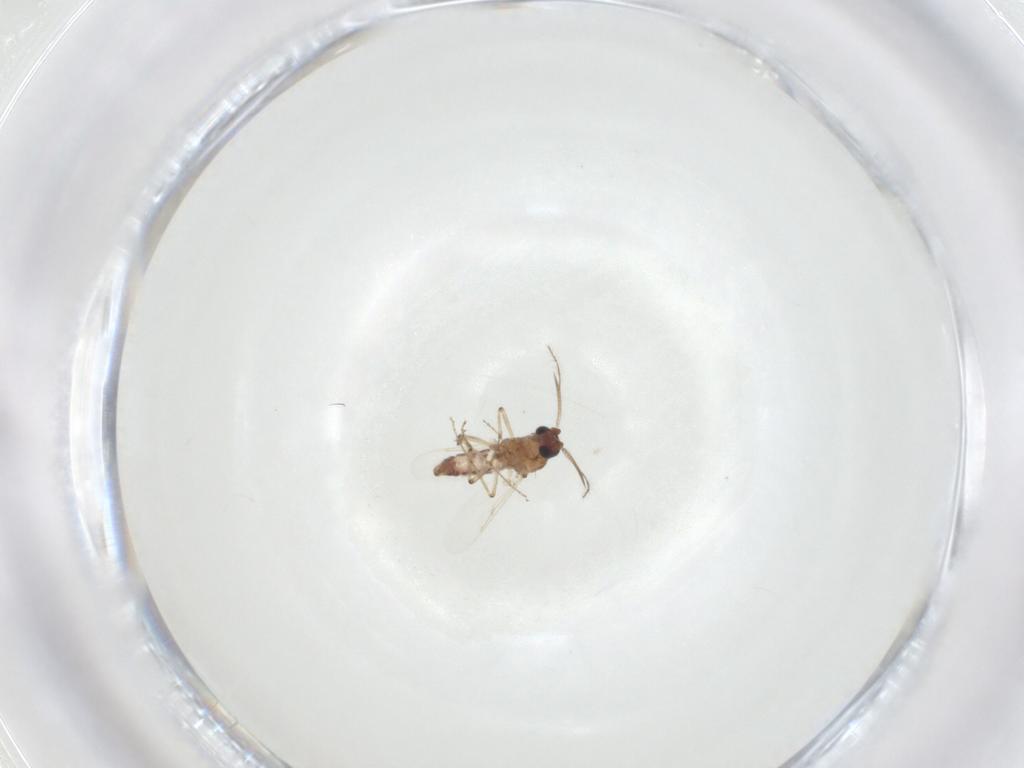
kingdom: Animalia
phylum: Arthropoda
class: Insecta
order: Diptera
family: Ceratopogonidae
